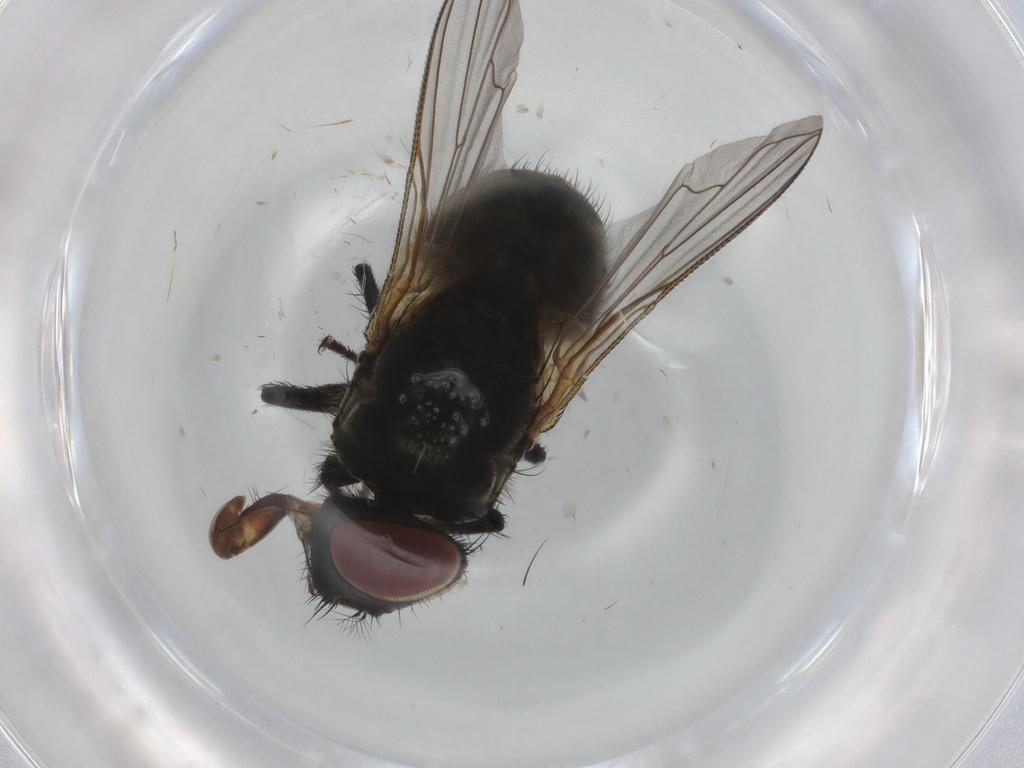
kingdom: Animalia
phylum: Arthropoda
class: Insecta
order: Diptera
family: Muscidae
